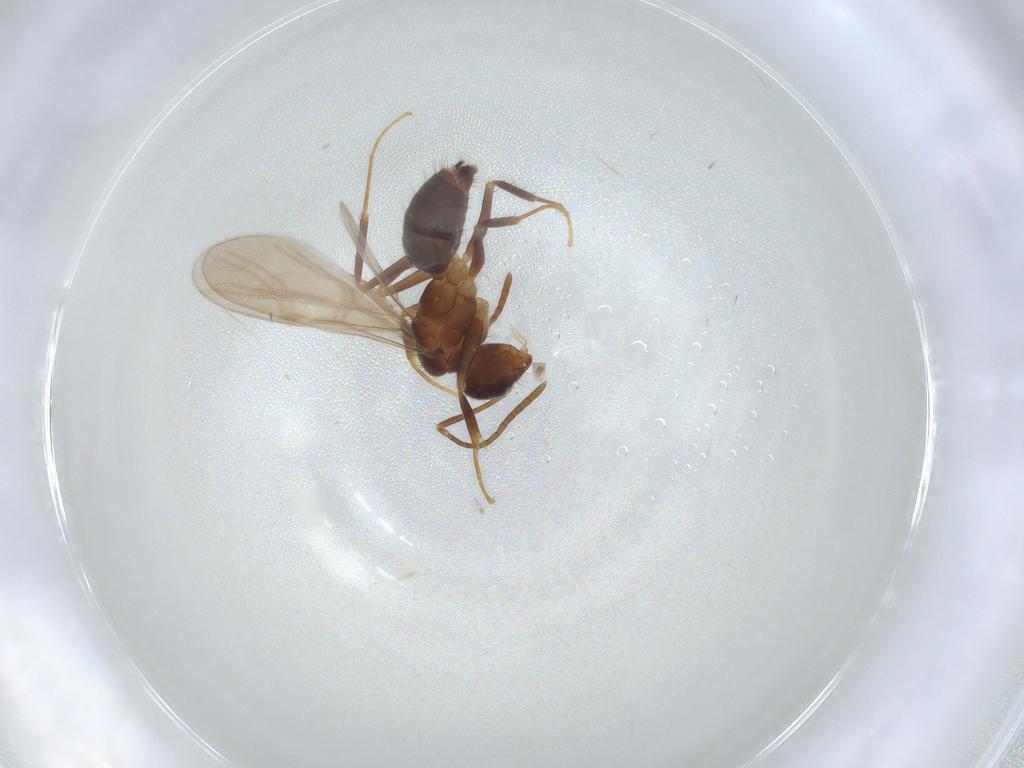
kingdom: Animalia
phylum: Arthropoda
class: Insecta
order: Hymenoptera
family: Formicidae
